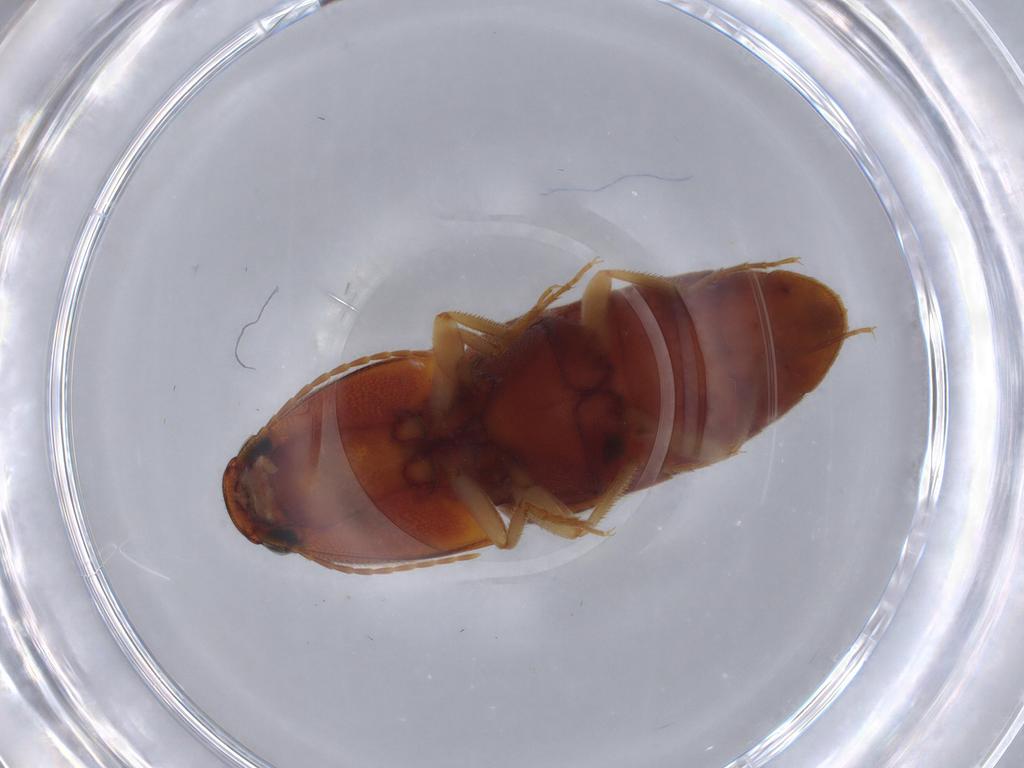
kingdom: Animalia
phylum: Arthropoda
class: Insecta
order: Coleoptera
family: Elateridae
